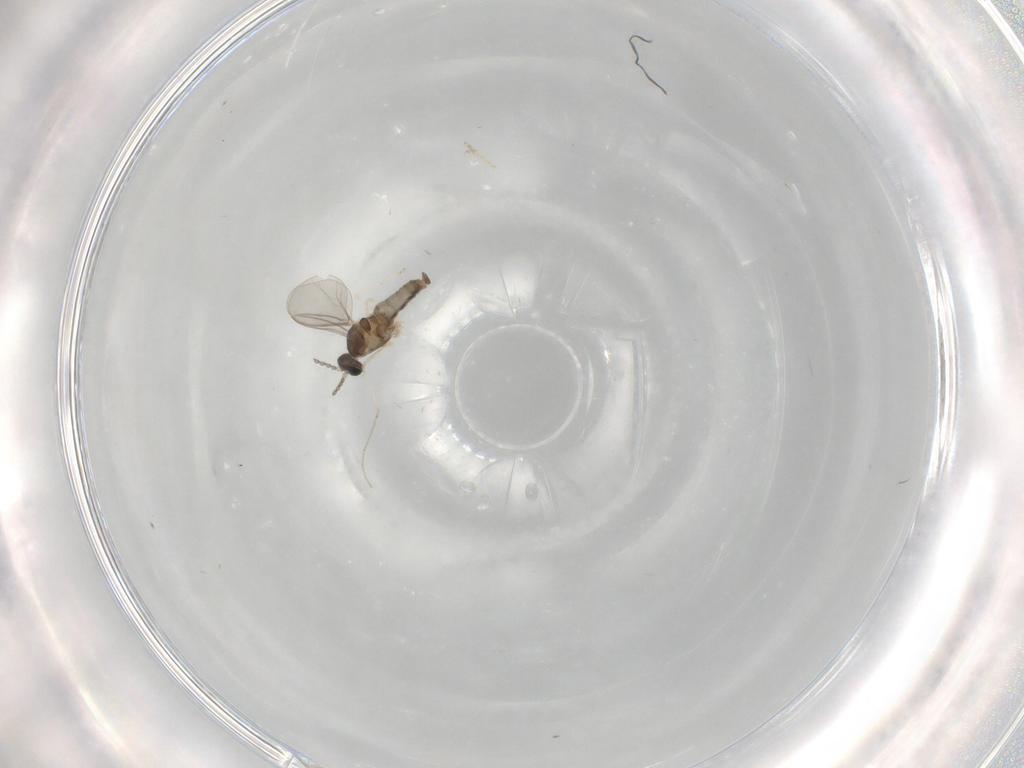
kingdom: Animalia
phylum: Arthropoda
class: Insecta
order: Diptera
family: Cecidomyiidae
